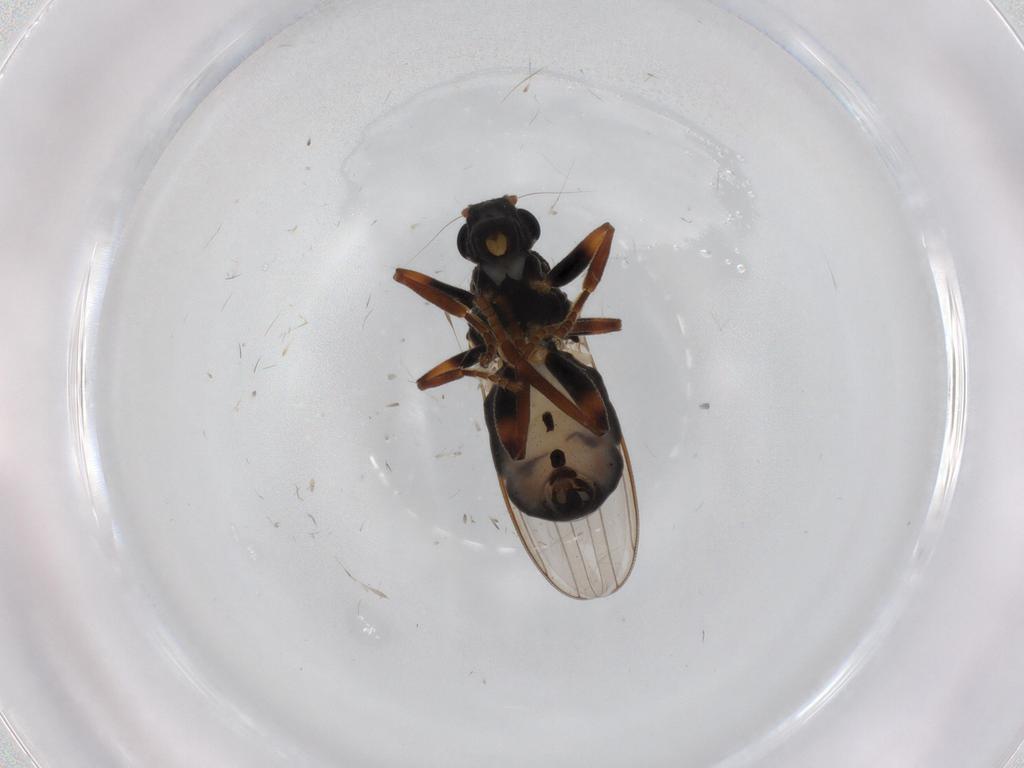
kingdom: Animalia
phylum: Arthropoda
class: Insecta
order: Diptera
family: Sphaeroceridae
